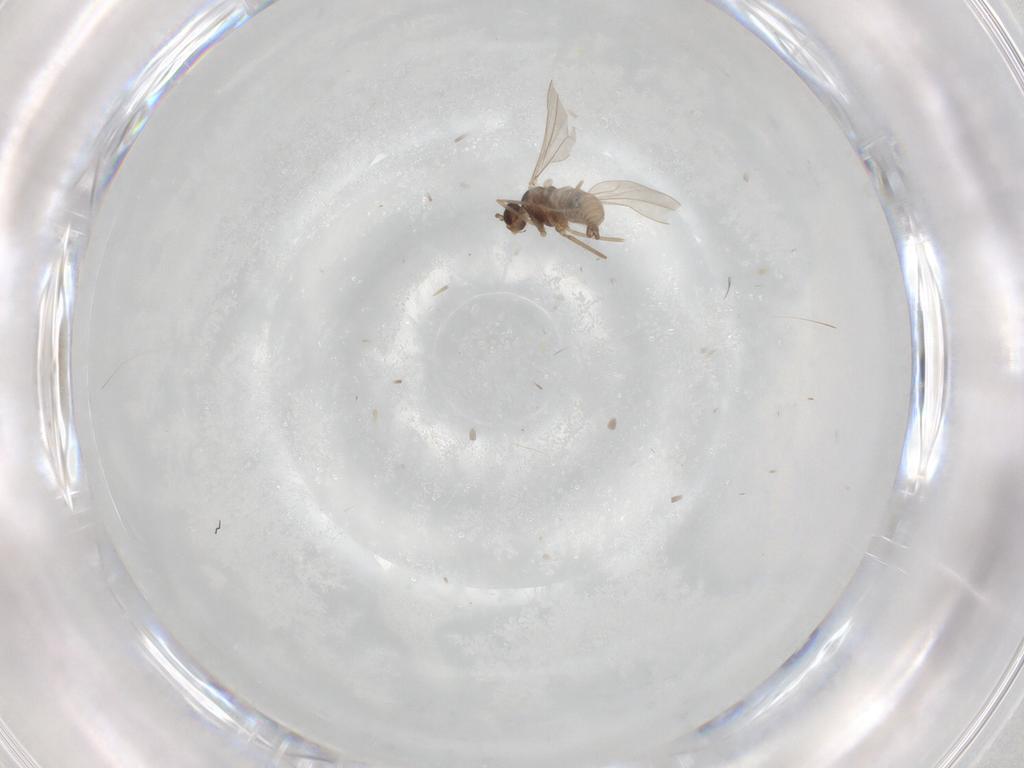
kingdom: Animalia
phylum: Arthropoda
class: Insecta
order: Diptera
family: Cecidomyiidae
